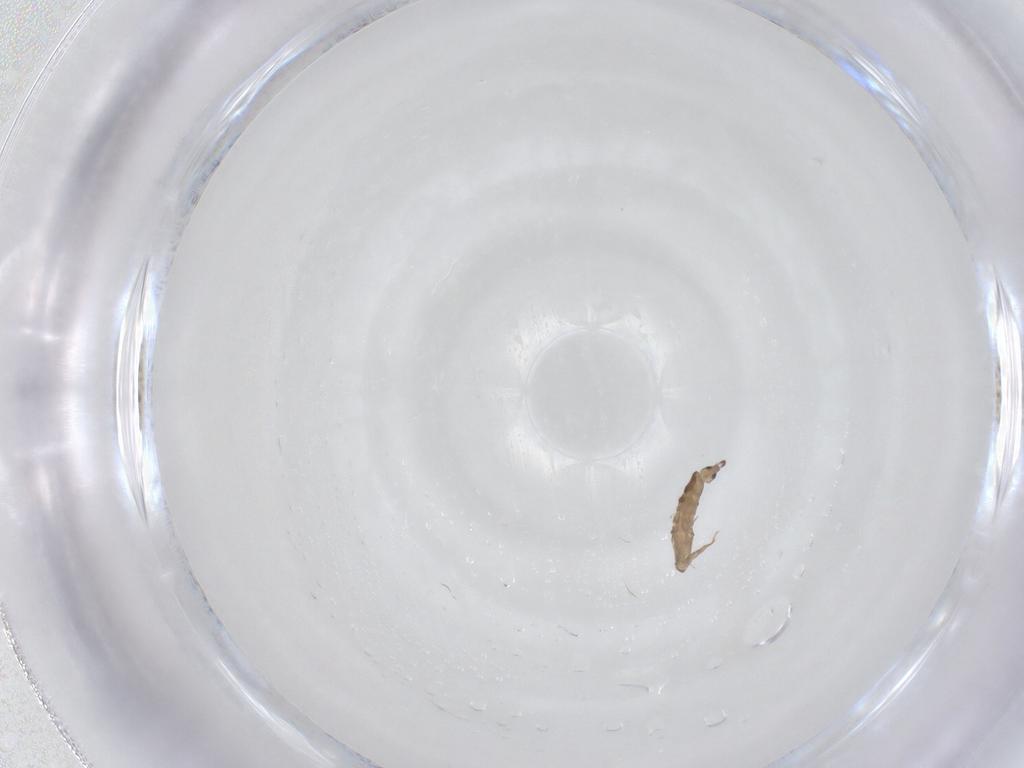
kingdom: Animalia
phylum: Arthropoda
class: Collembola
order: Entomobryomorpha
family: Entomobryidae
